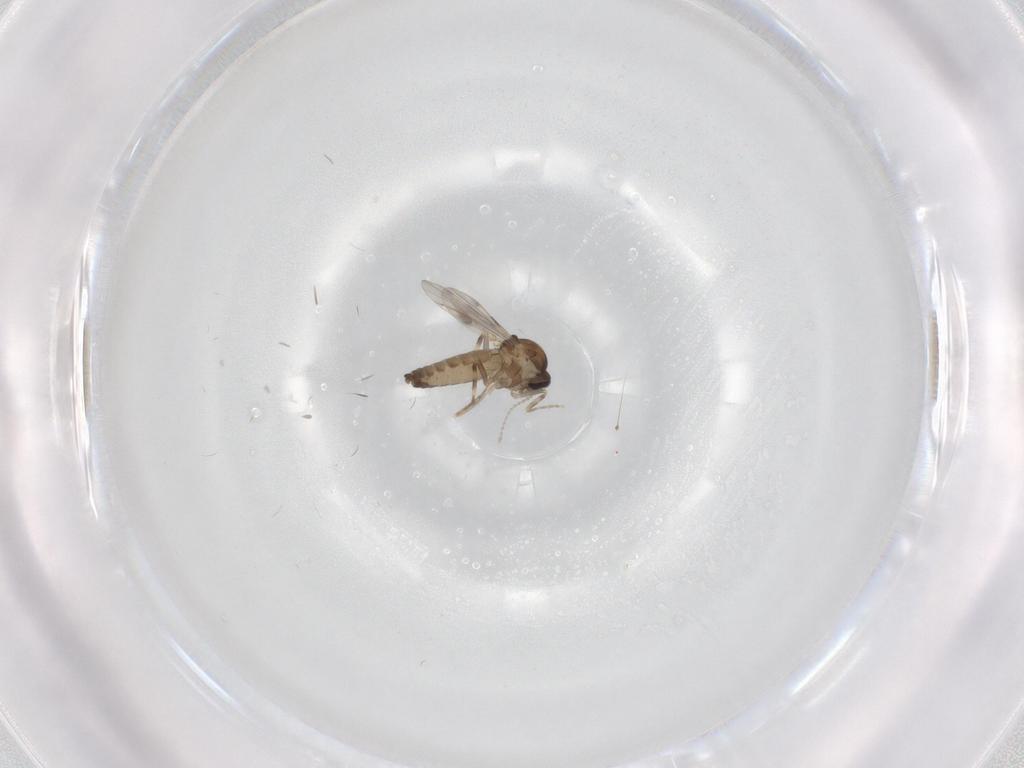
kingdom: Animalia
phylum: Arthropoda
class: Insecta
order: Diptera
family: Ceratopogonidae
